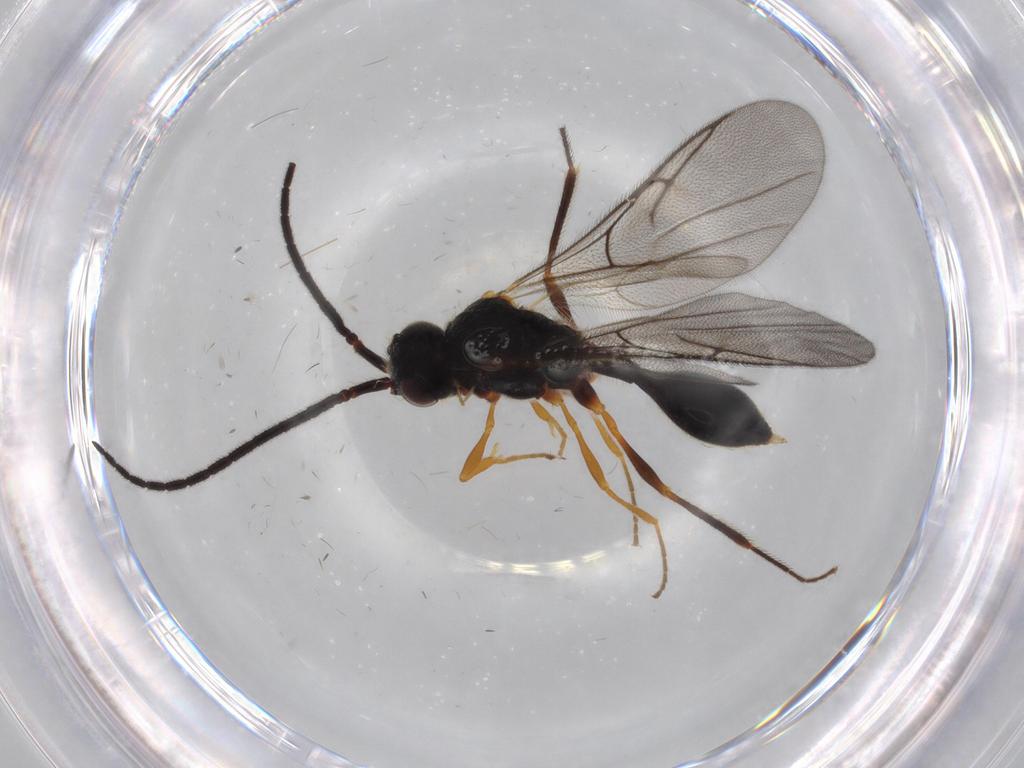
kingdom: Animalia
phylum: Arthropoda
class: Insecta
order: Hymenoptera
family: Diapriidae
